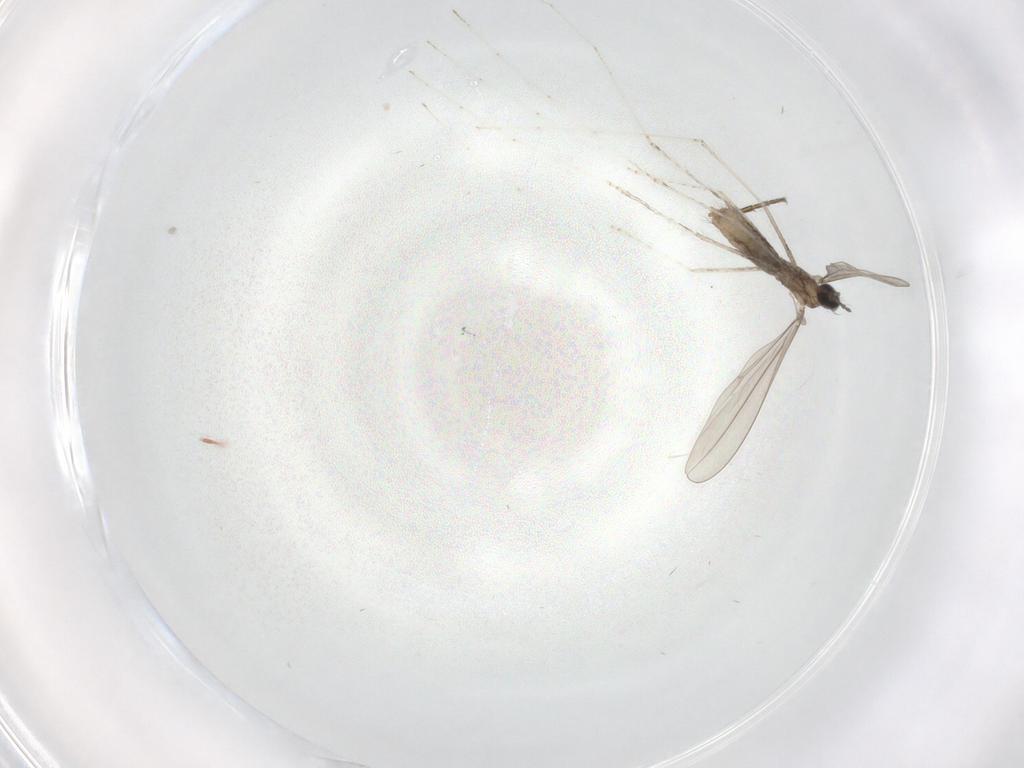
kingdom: Animalia
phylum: Arthropoda
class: Insecta
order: Diptera
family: Cecidomyiidae
